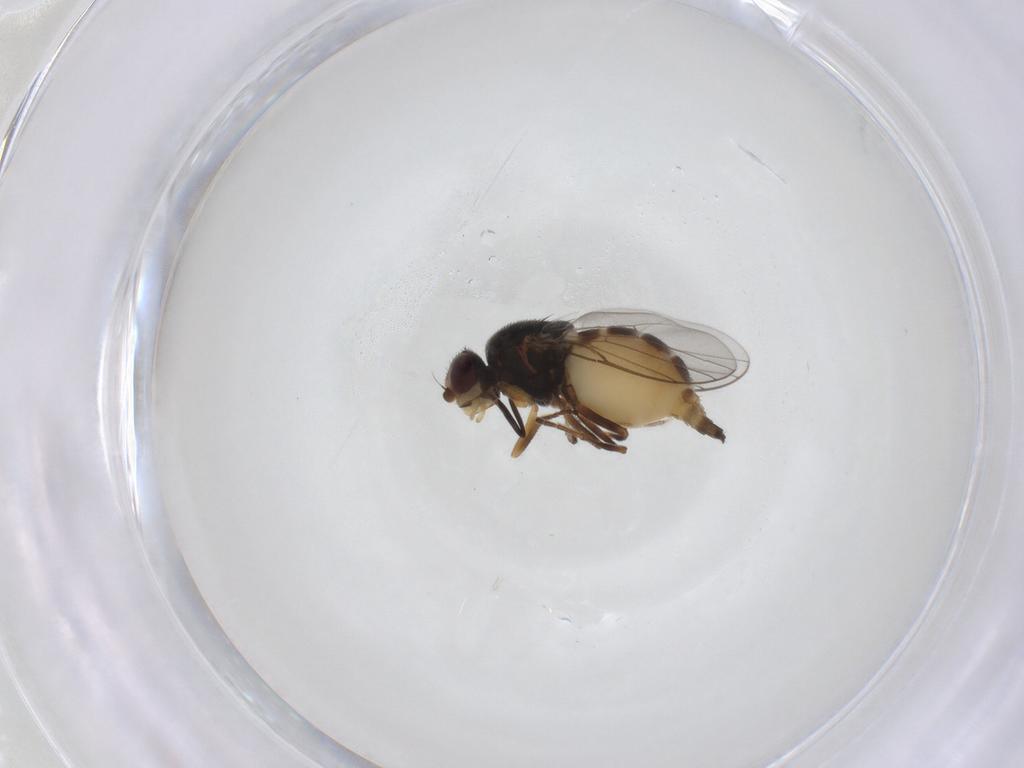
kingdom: Animalia
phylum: Arthropoda
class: Insecta
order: Diptera
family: Chloropidae
